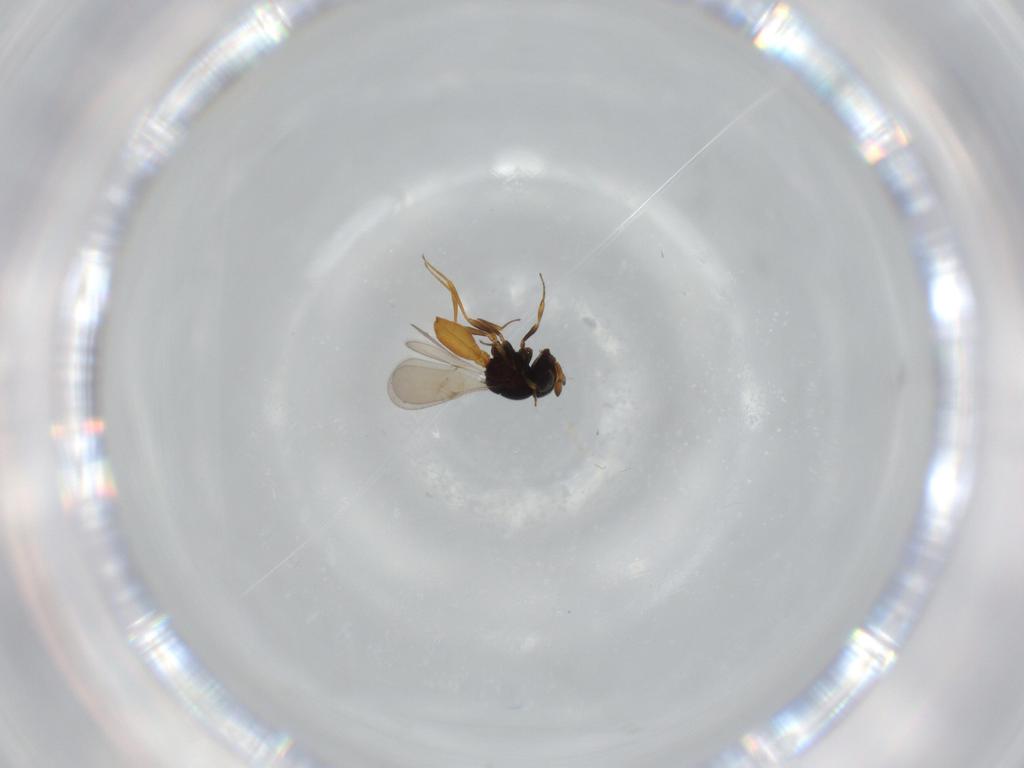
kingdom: Animalia
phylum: Arthropoda
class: Insecta
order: Hymenoptera
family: Scelionidae
